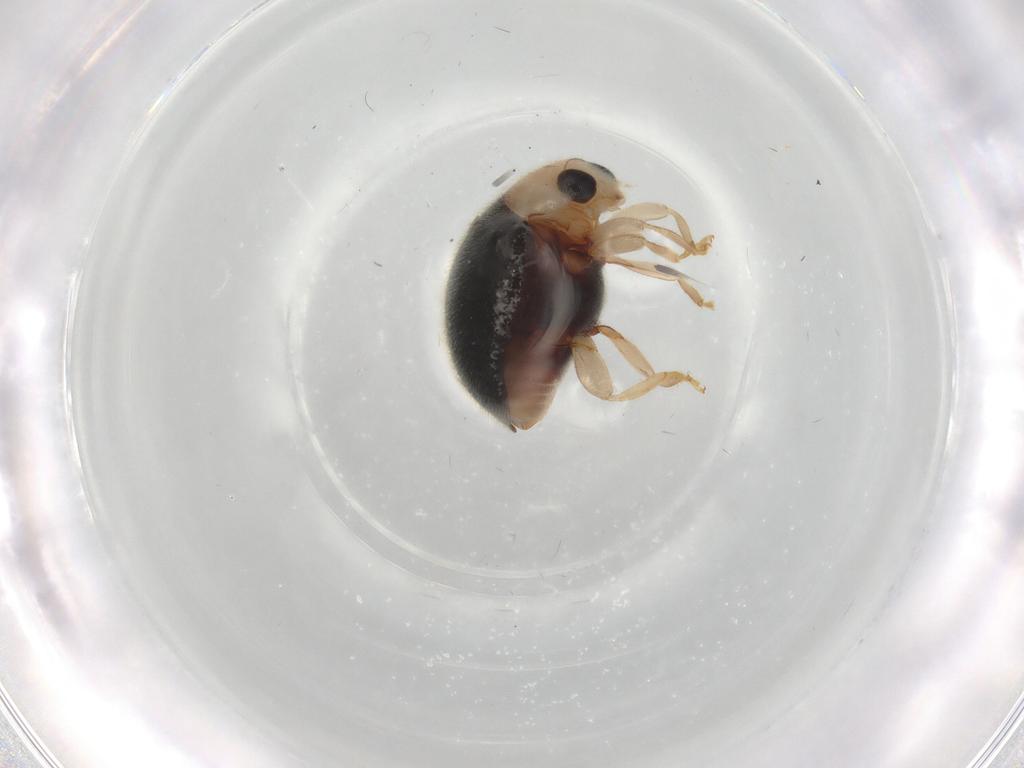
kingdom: Animalia
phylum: Arthropoda
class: Insecta
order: Coleoptera
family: Coccinellidae
